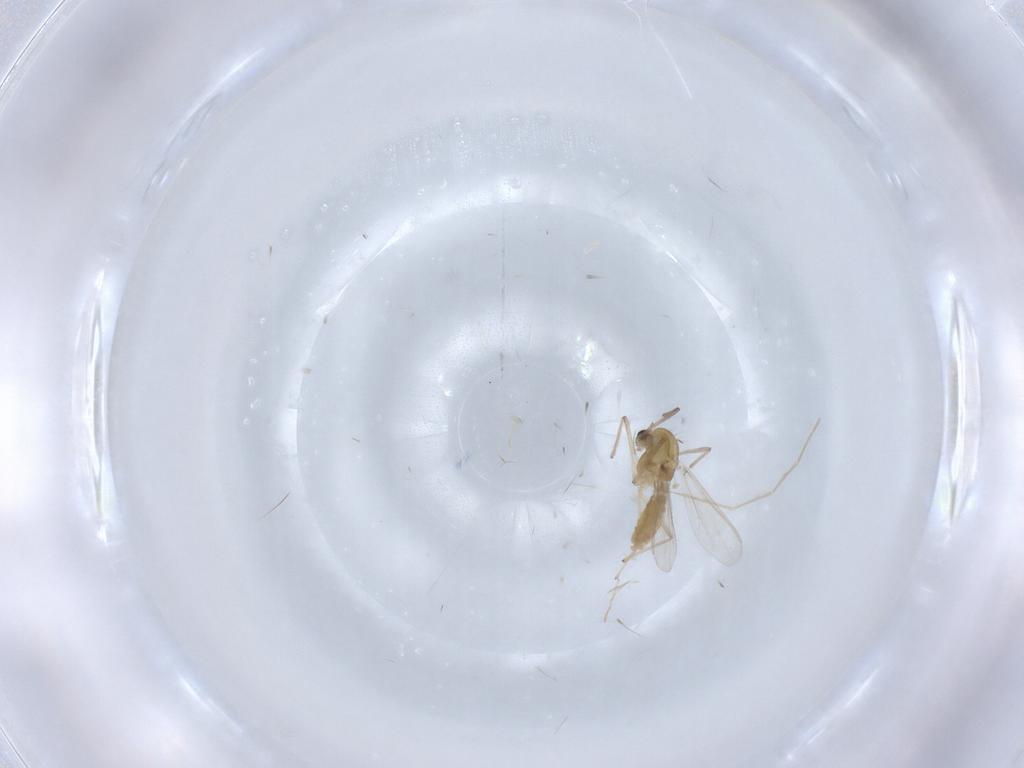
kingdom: Animalia
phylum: Arthropoda
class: Insecta
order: Diptera
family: Chironomidae
